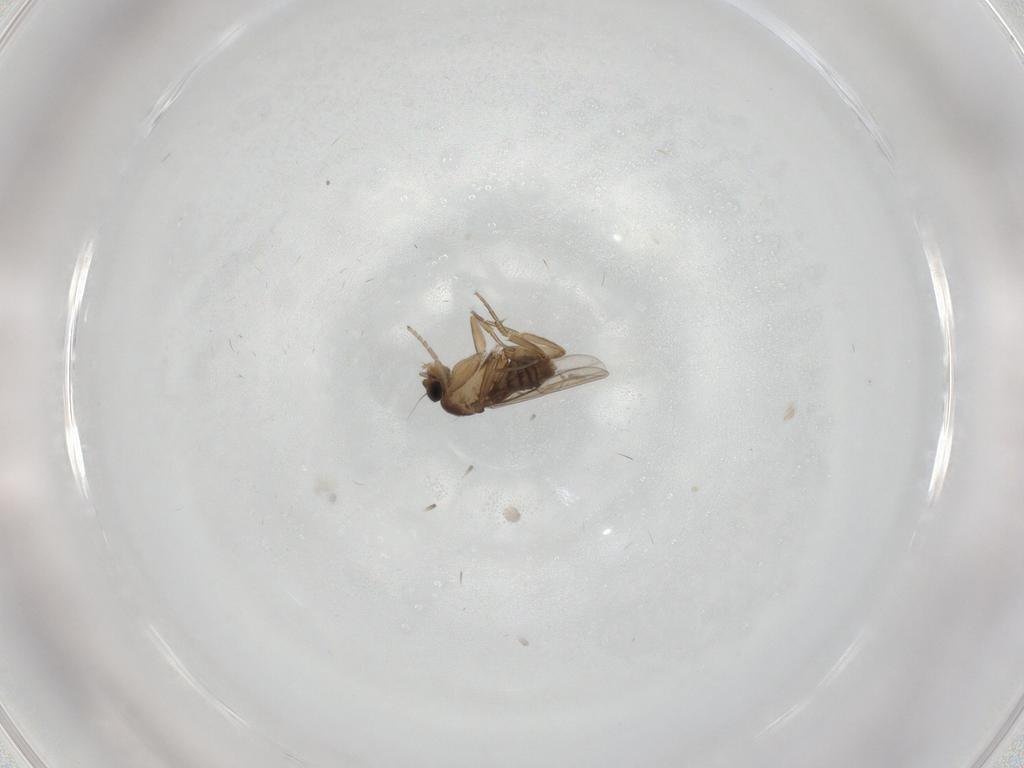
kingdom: Animalia
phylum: Arthropoda
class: Insecta
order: Diptera
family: Phoridae
